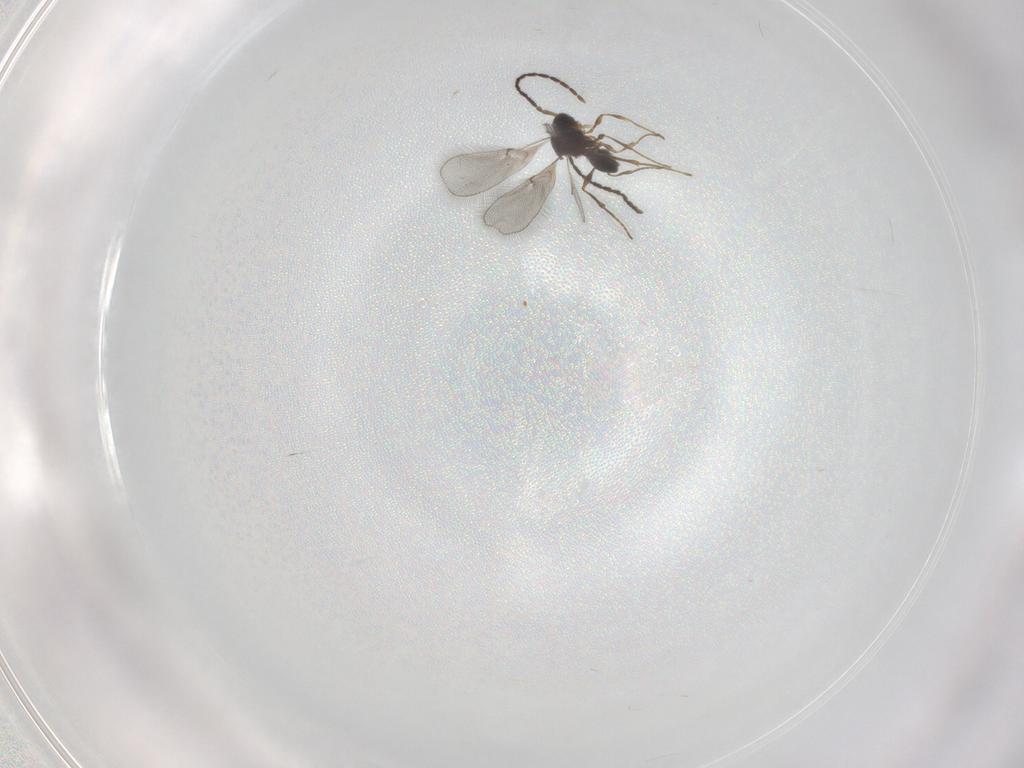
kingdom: Animalia
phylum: Arthropoda
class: Insecta
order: Hymenoptera
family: Diapriidae
